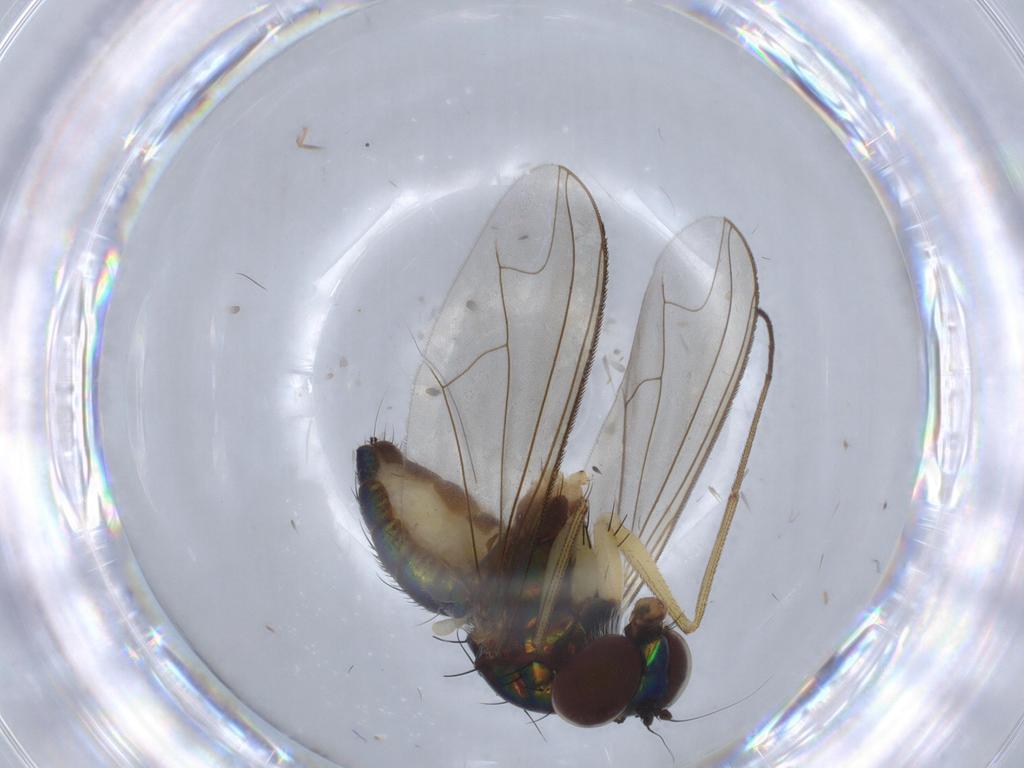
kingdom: Animalia
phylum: Arthropoda
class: Insecta
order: Diptera
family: Dolichopodidae
